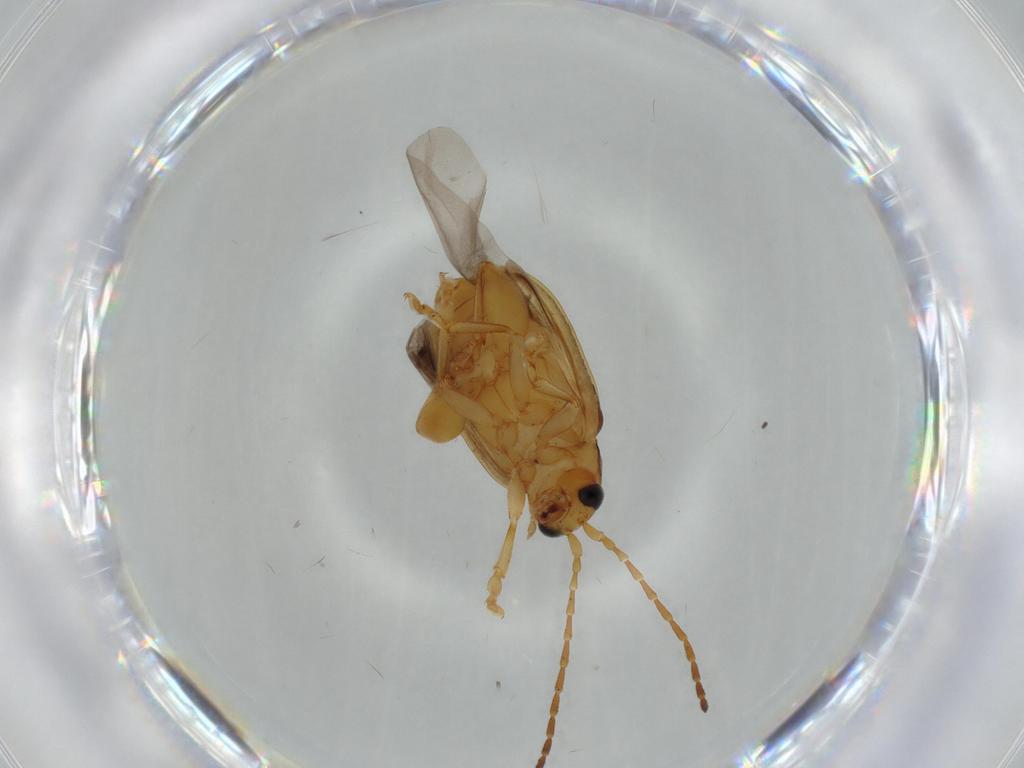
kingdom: Animalia
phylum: Arthropoda
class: Insecta
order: Coleoptera
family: Chrysomelidae
